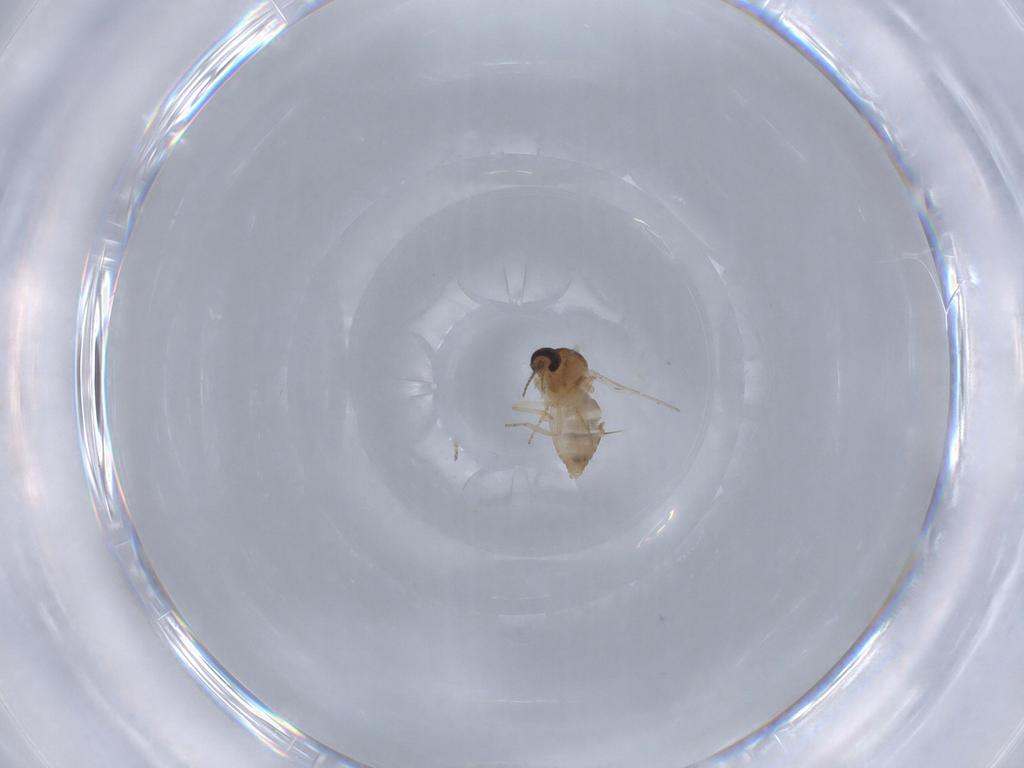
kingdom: Animalia
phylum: Arthropoda
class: Insecta
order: Diptera
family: Ceratopogonidae
